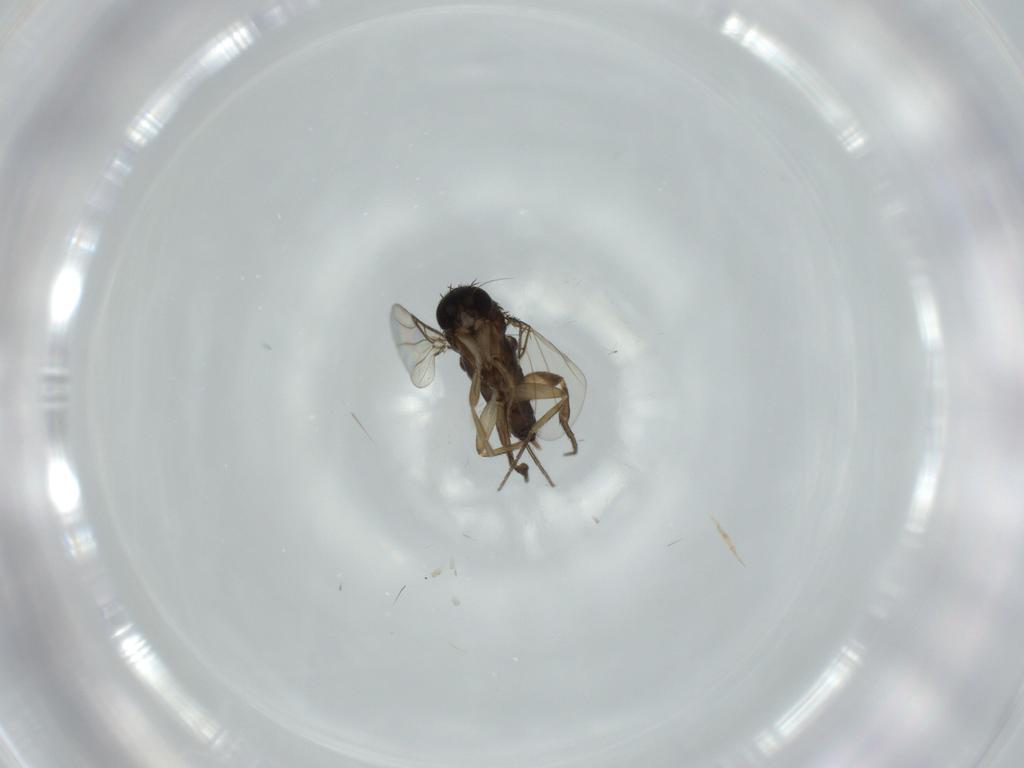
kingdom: Animalia
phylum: Arthropoda
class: Insecta
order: Diptera
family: Phoridae
